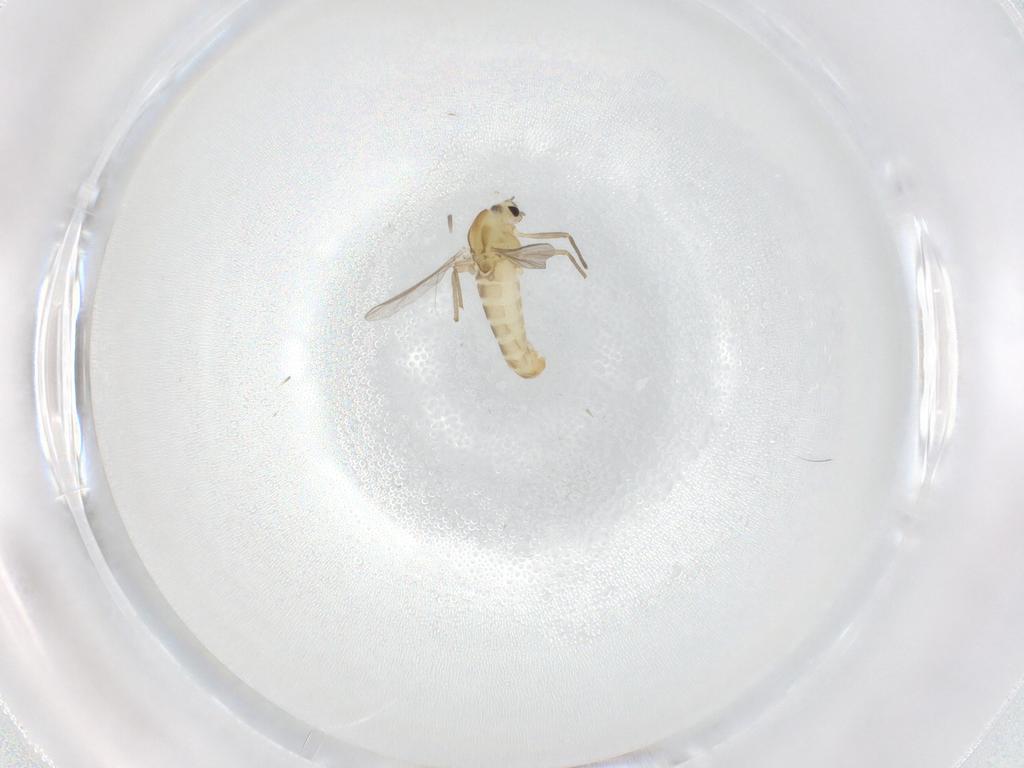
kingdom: Animalia
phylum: Arthropoda
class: Insecta
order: Diptera
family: Chironomidae
